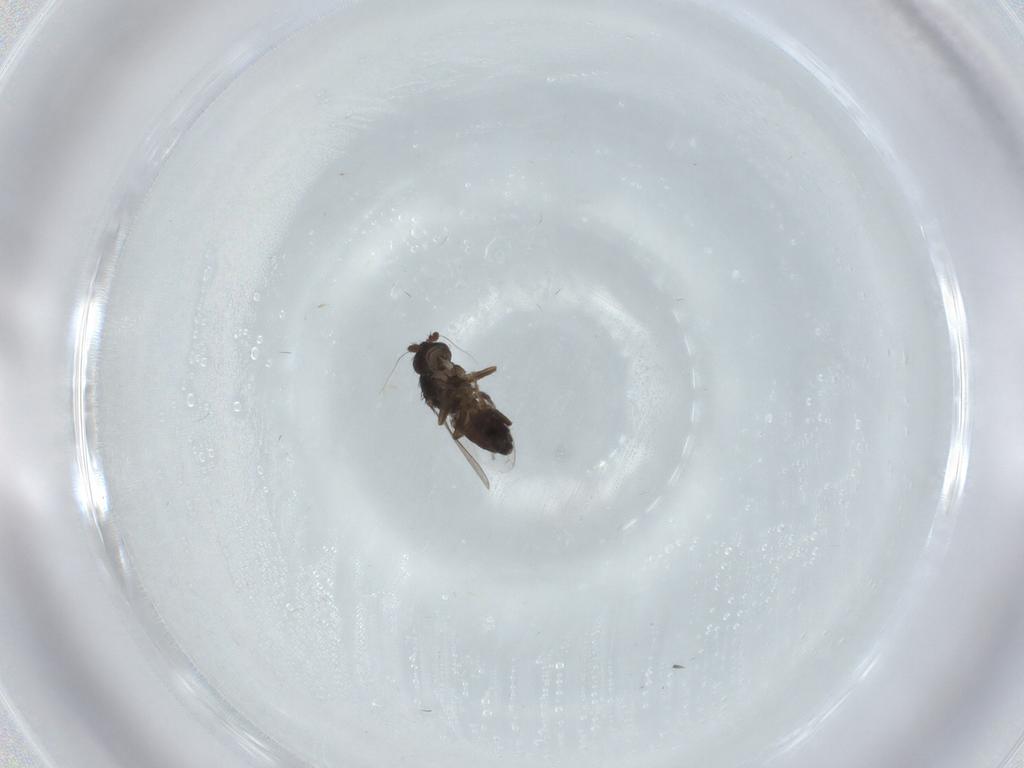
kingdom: Animalia
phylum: Arthropoda
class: Insecta
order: Diptera
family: Sphaeroceridae
